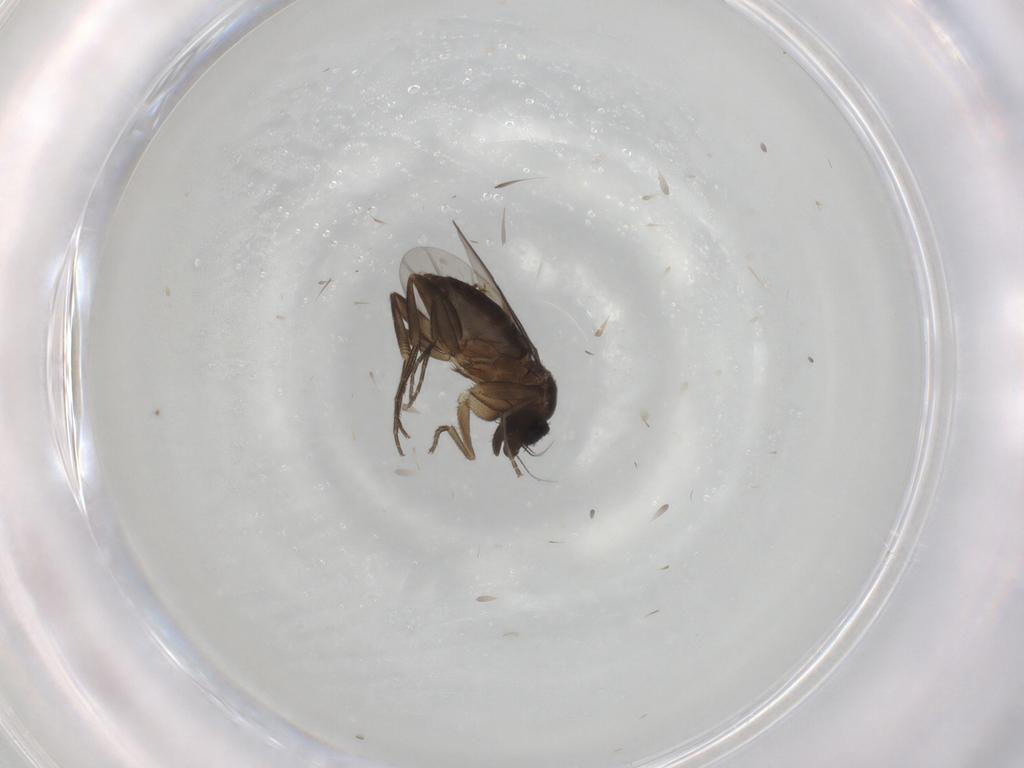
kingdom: Animalia
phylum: Arthropoda
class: Insecta
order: Diptera
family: Phoridae
